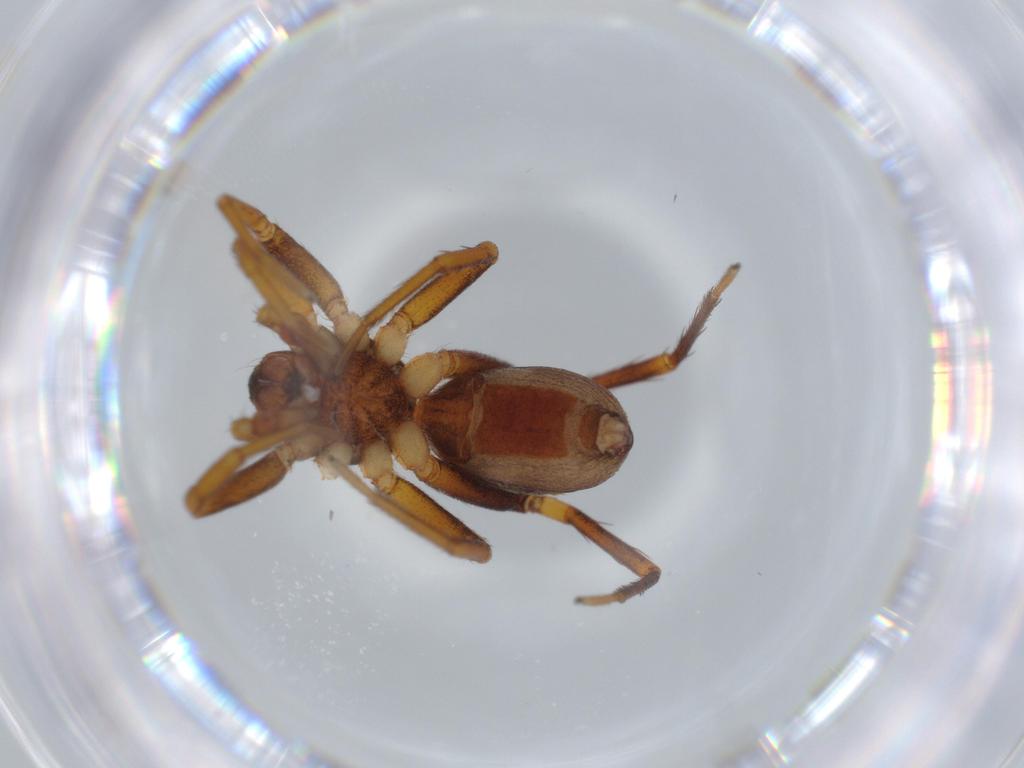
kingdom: Animalia
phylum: Arthropoda
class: Arachnida
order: Araneae
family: Corinnidae
